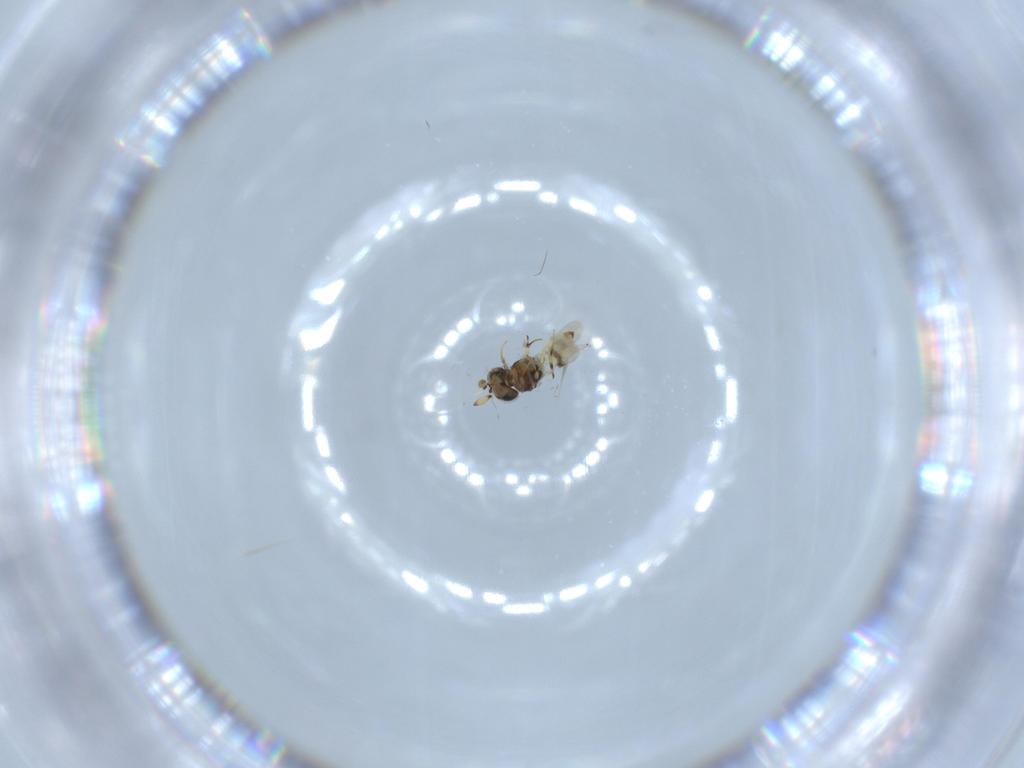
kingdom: Animalia
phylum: Arthropoda
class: Insecta
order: Hymenoptera
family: Scelionidae
